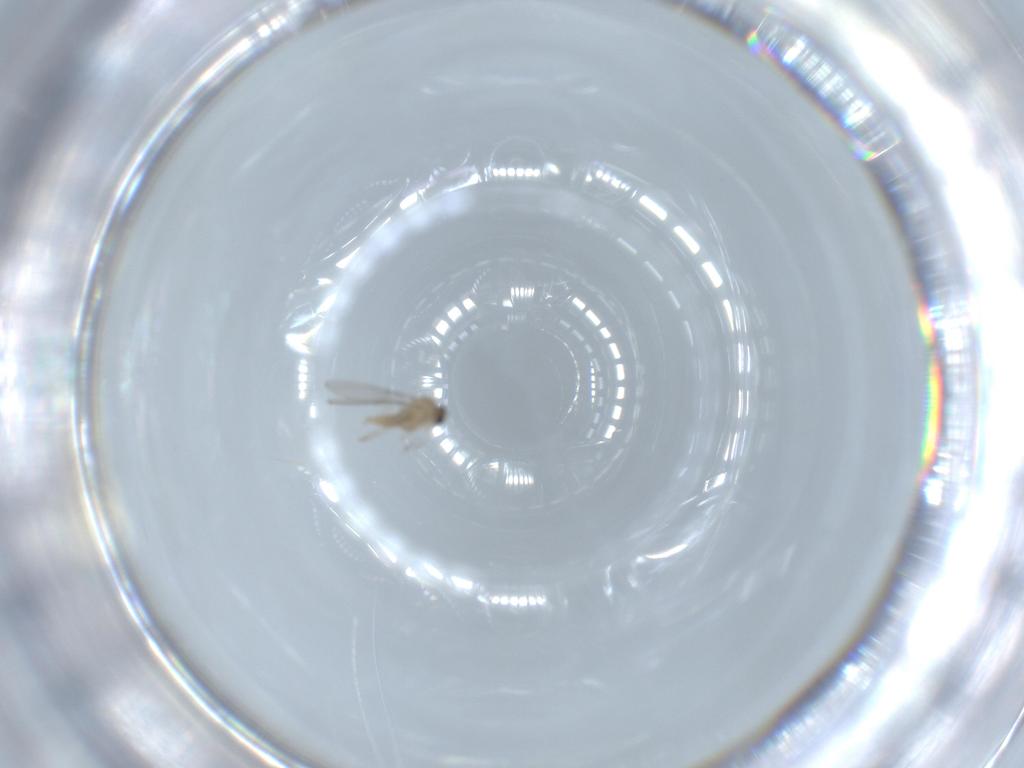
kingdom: Animalia
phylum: Arthropoda
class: Insecta
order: Diptera
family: Cecidomyiidae
